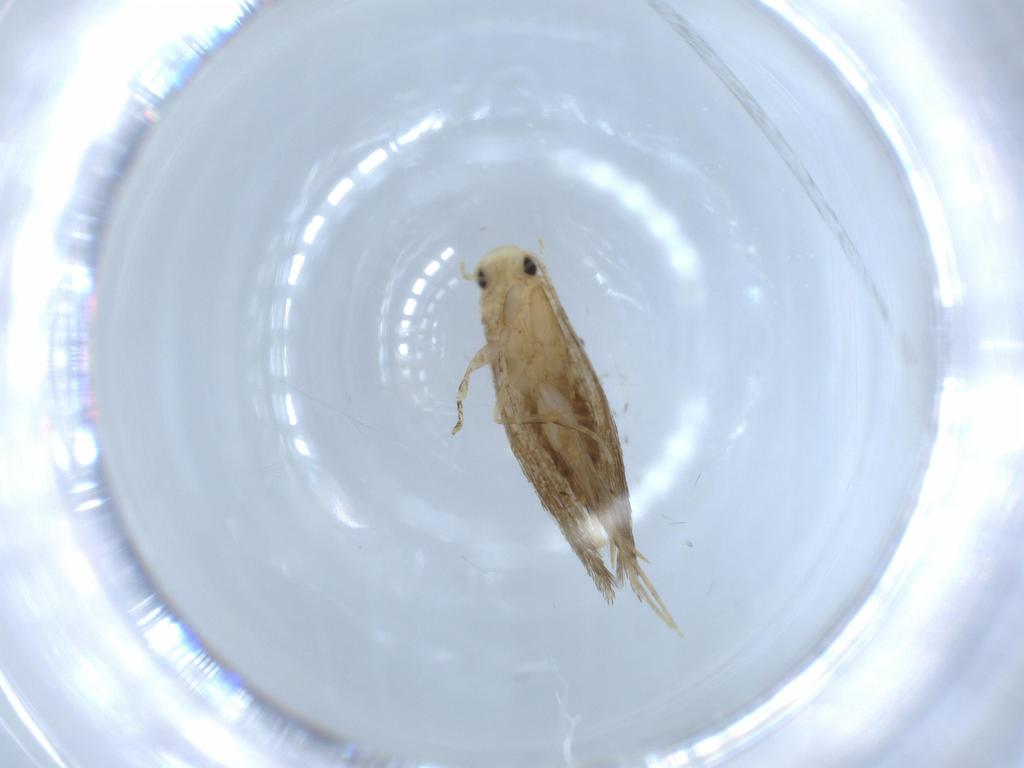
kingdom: Animalia
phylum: Arthropoda
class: Insecta
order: Lepidoptera
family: Tineidae
